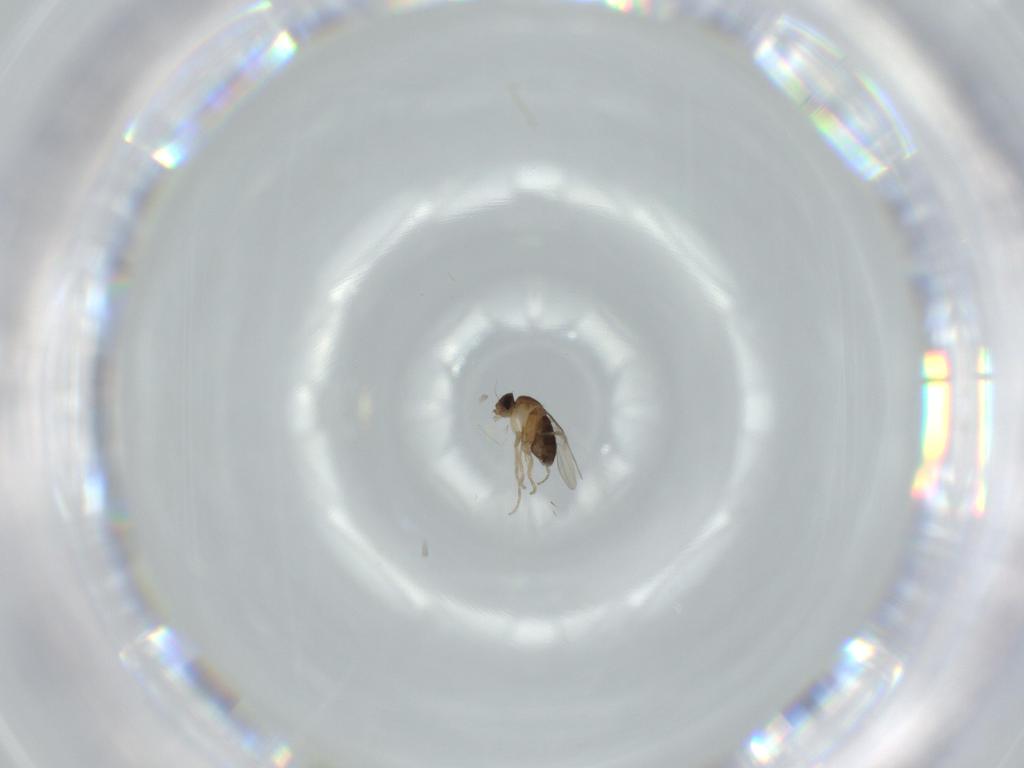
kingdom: Animalia
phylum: Arthropoda
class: Insecta
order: Diptera
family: Phoridae
